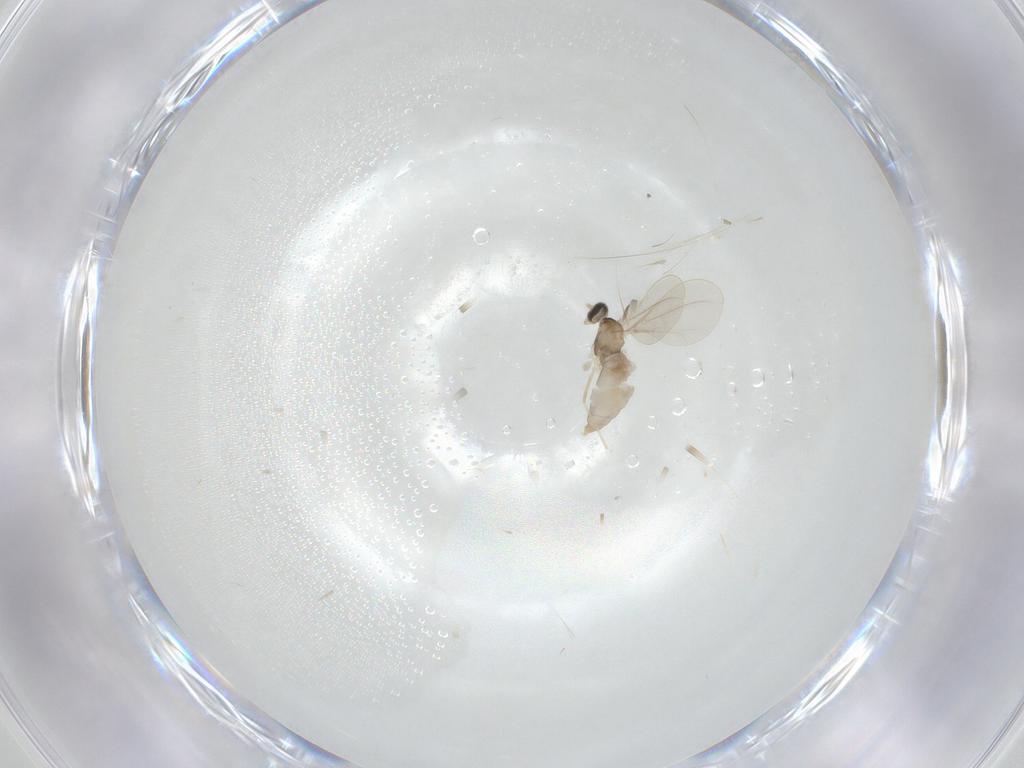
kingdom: Animalia
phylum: Arthropoda
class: Insecta
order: Diptera
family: Cecidomyiidae
